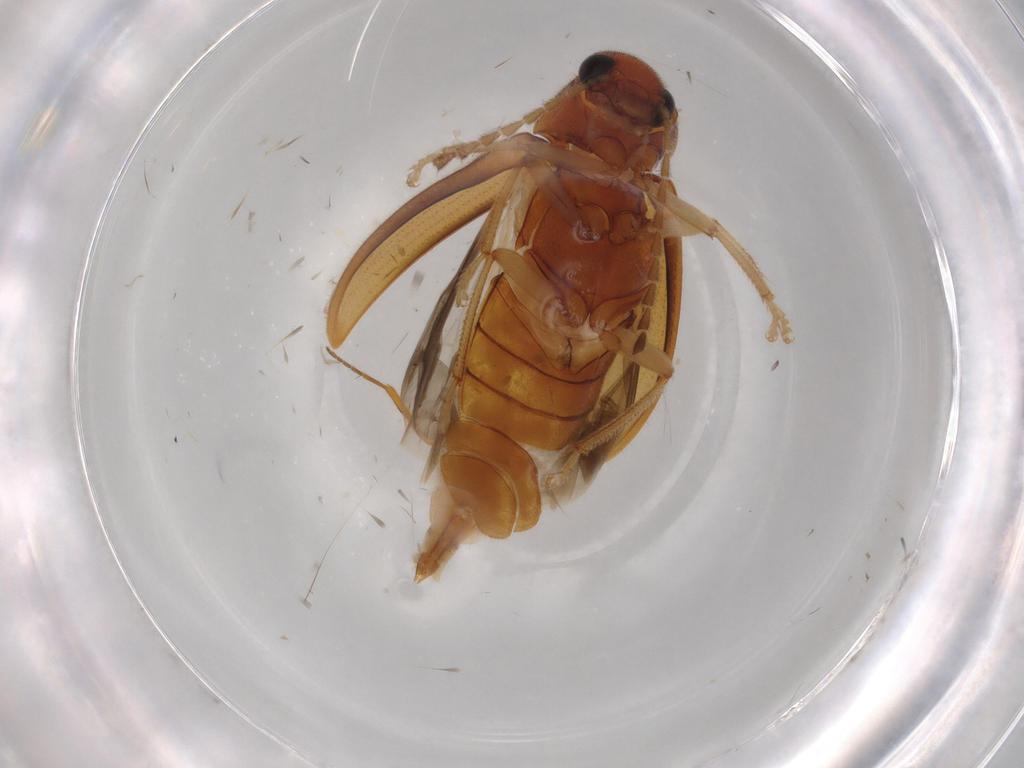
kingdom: Animalia
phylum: Arthropoda
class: Insecta
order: Coleoptera
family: Ptilodactylidae
